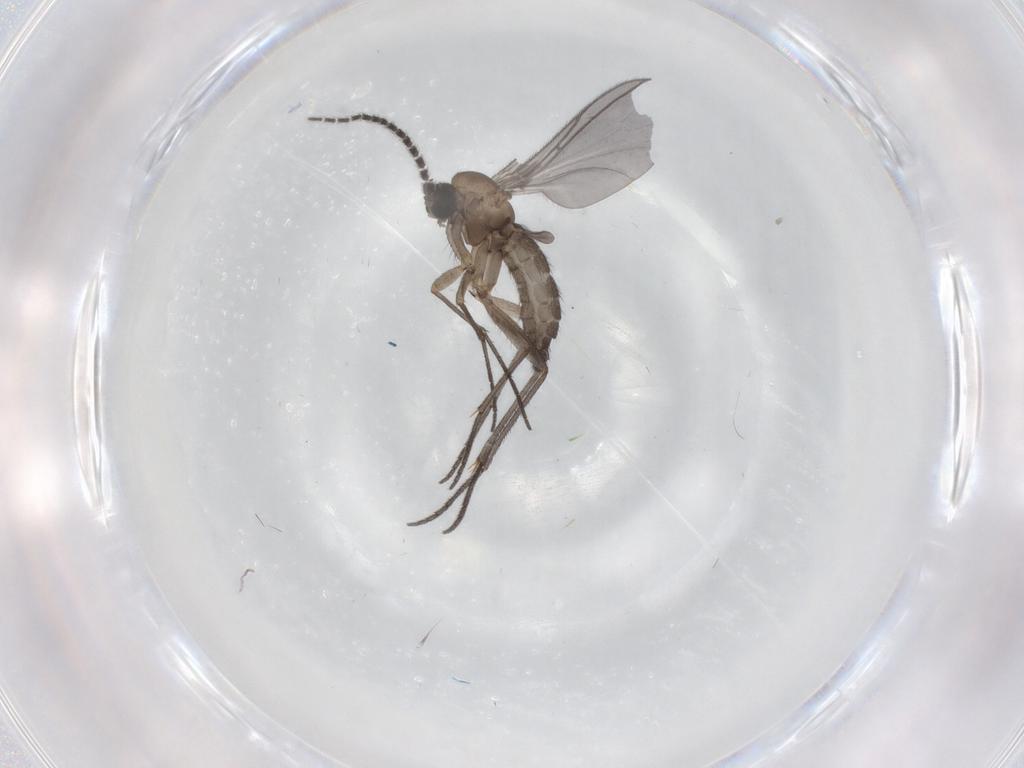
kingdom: Animalia
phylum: Arthropoda
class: Insecta
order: Diptera
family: Sciaridae
